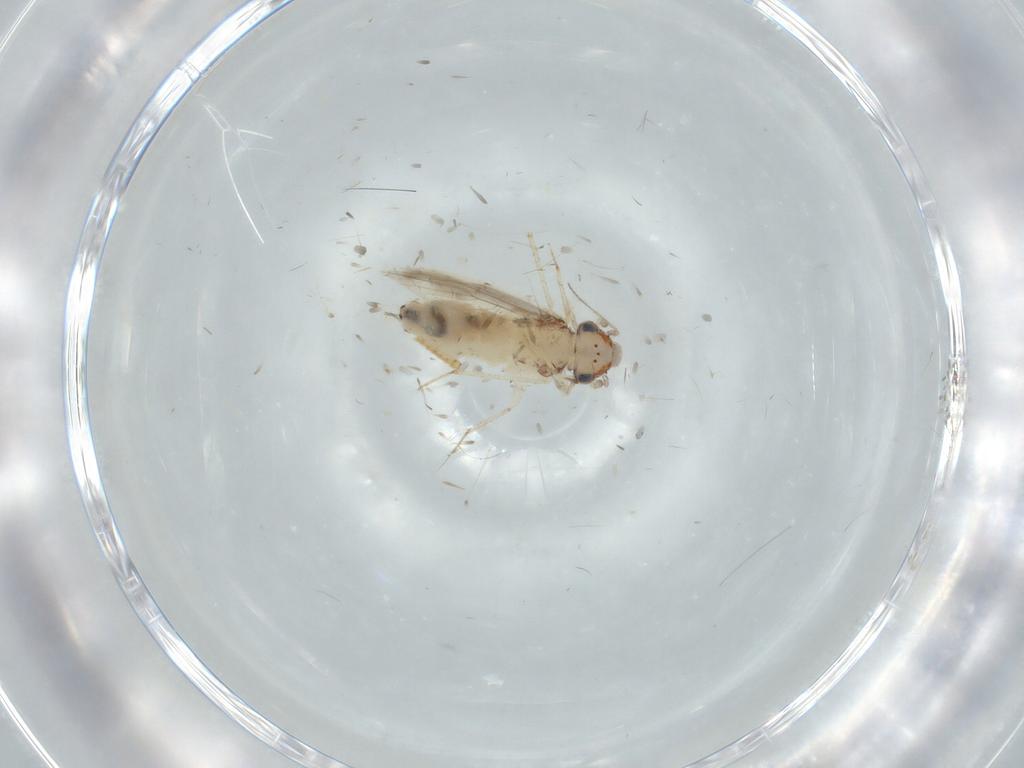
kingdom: Animalia
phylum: Arthropoda
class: Insecta
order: Psocodea
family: Lepidopsocidae
